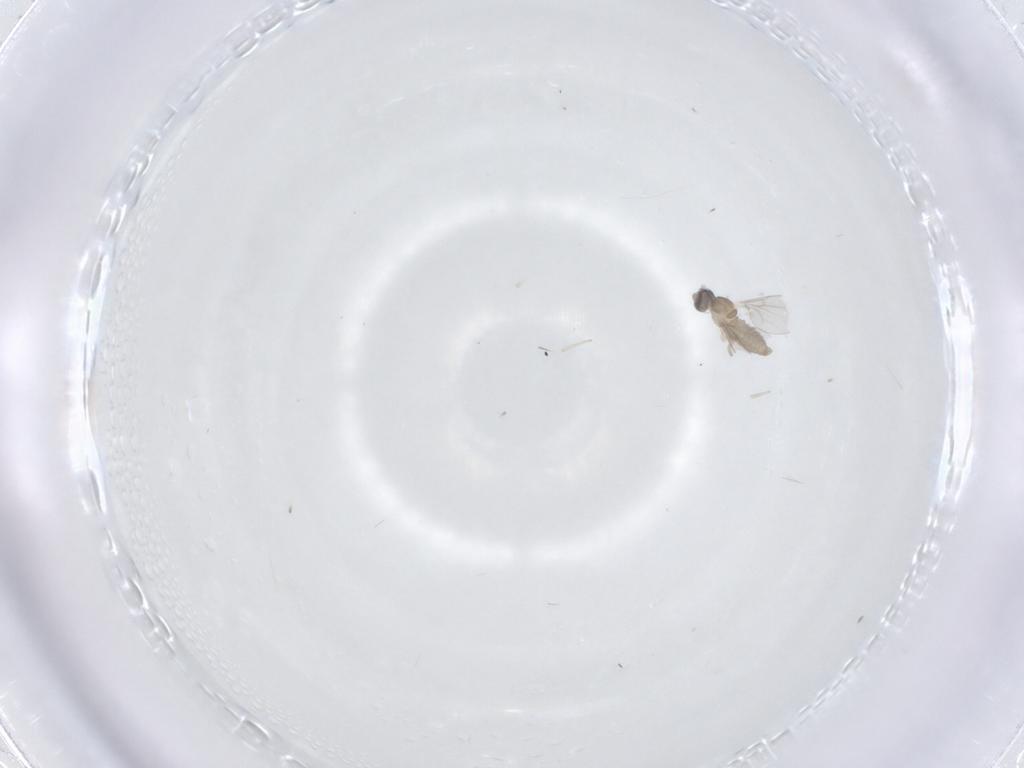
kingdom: Animalia
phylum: Arthropoda
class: Insecta
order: Diptera
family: Cecidomyiidae
